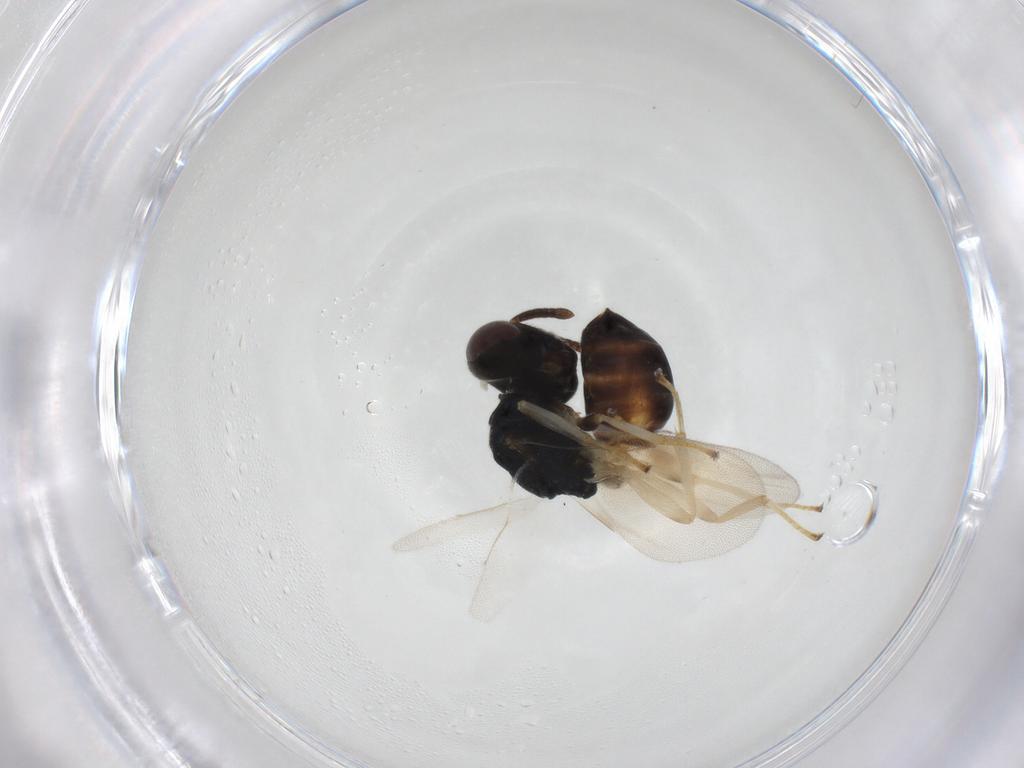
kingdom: Animalia
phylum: Arthropoda
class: Insecta
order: Hymenoptera
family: Pteromalidae
